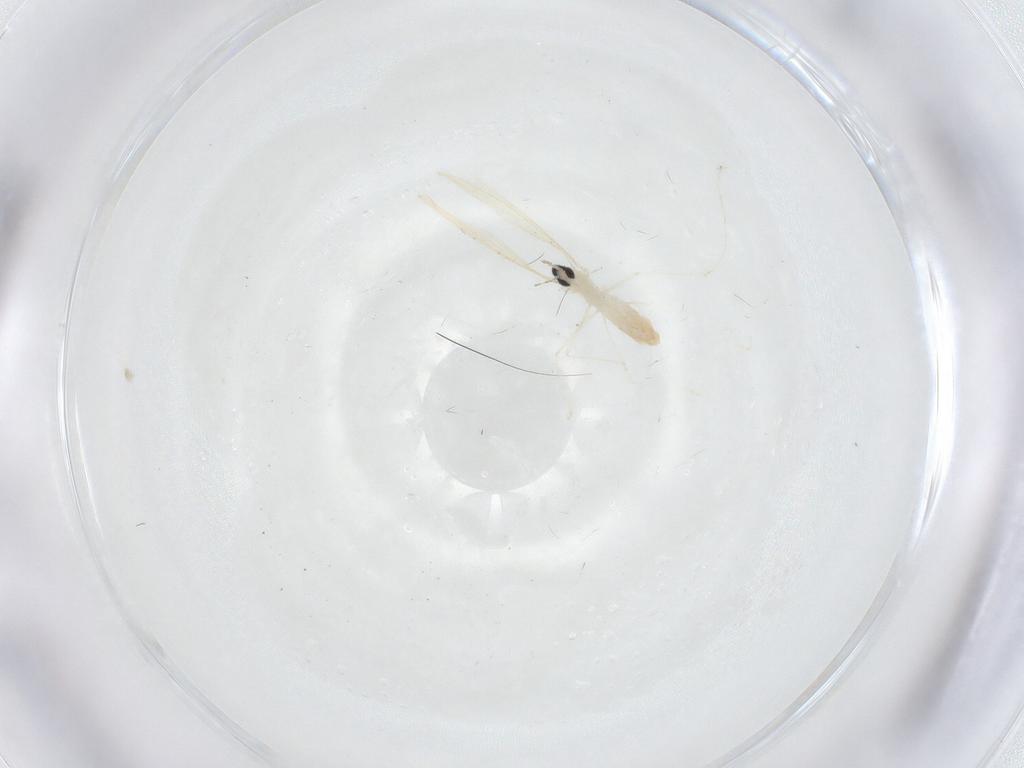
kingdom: Animalia
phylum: Arthropoda
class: Insecta
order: Diptera
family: Cecidomyiidae
